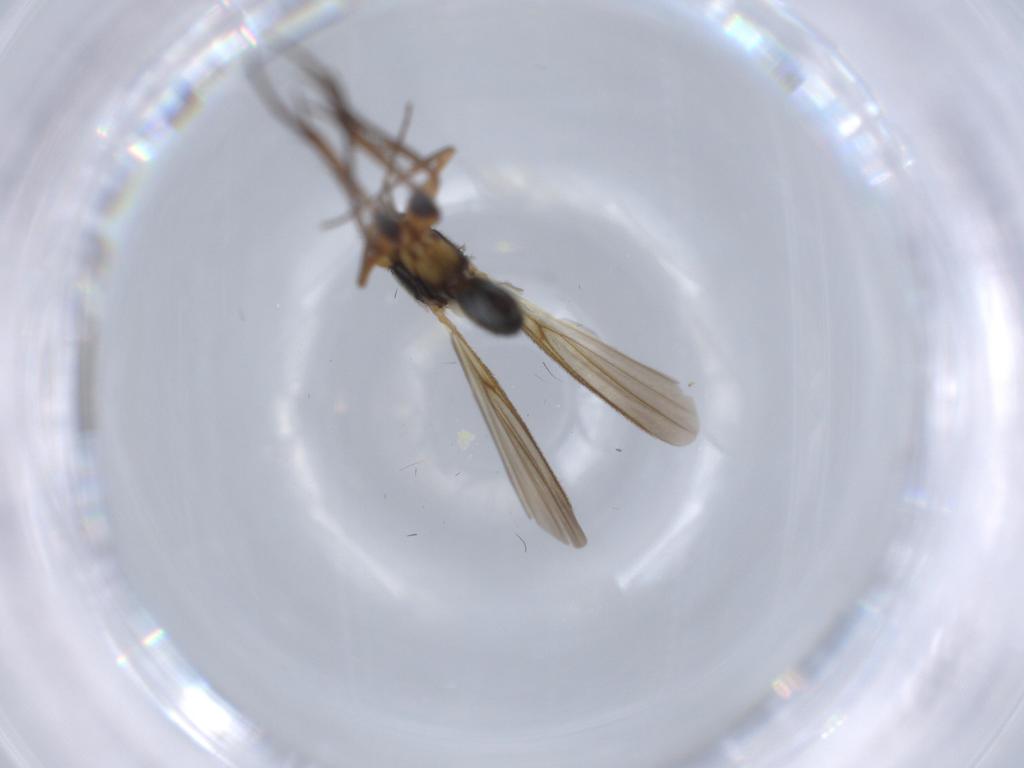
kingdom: Animalia
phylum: Arthropoda
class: Insecta
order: Diptera
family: Mycetophilidae
